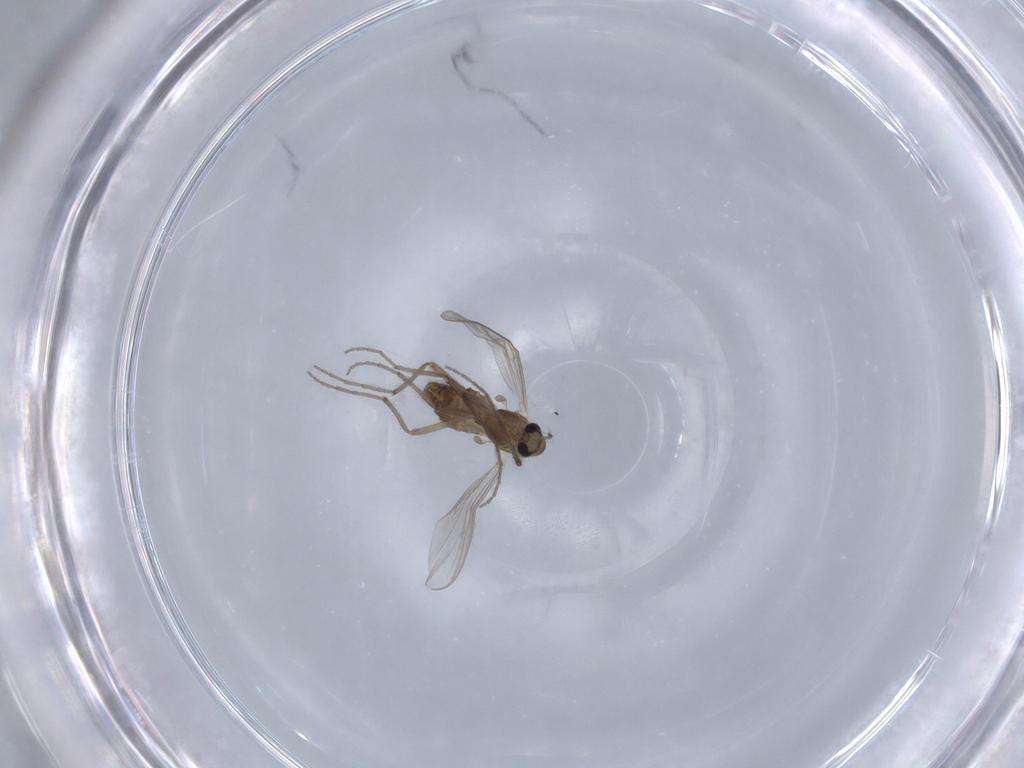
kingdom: Animalia
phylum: Arthropoda
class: Insecta
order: Diptera
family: Chironomidae
